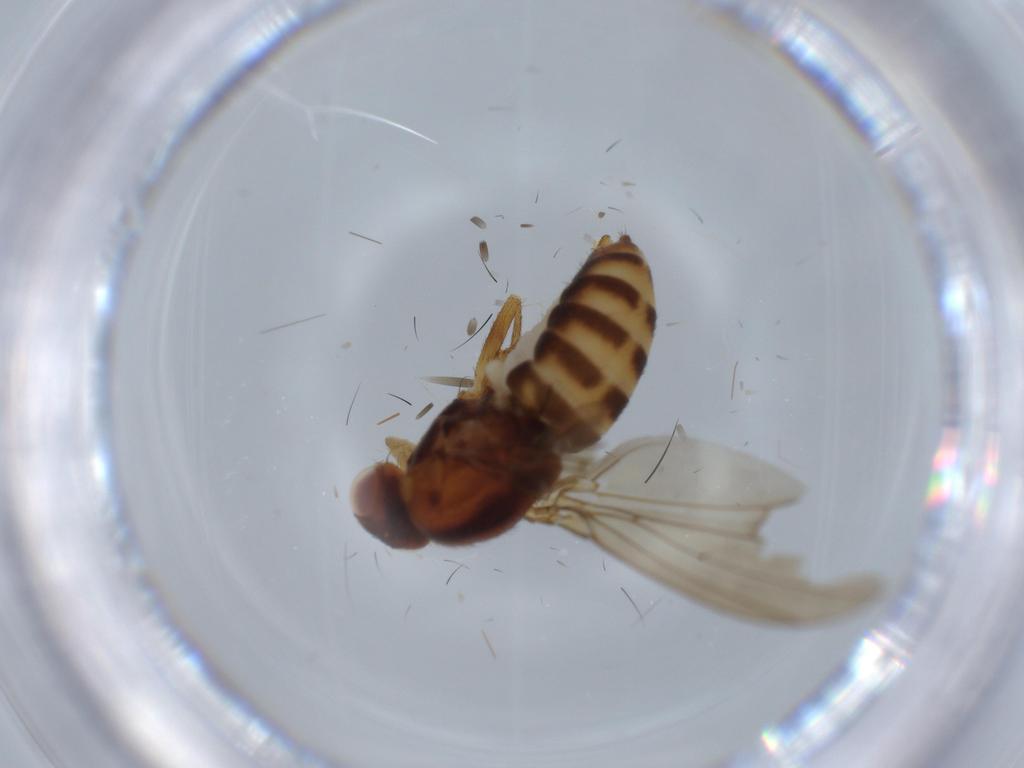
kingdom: Animalia
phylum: Arthropoda
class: Insecta
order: Diptera
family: Drosophilidae
